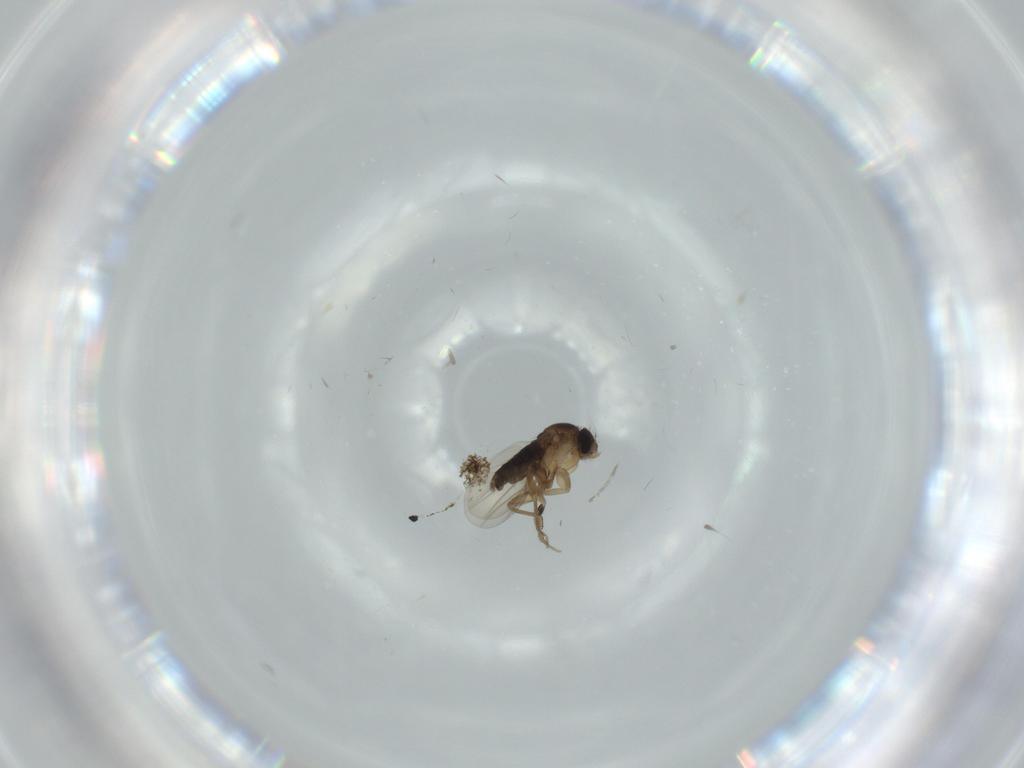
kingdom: Animalia
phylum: Arthropoda
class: Insecta
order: Diptera
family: Phoridae
